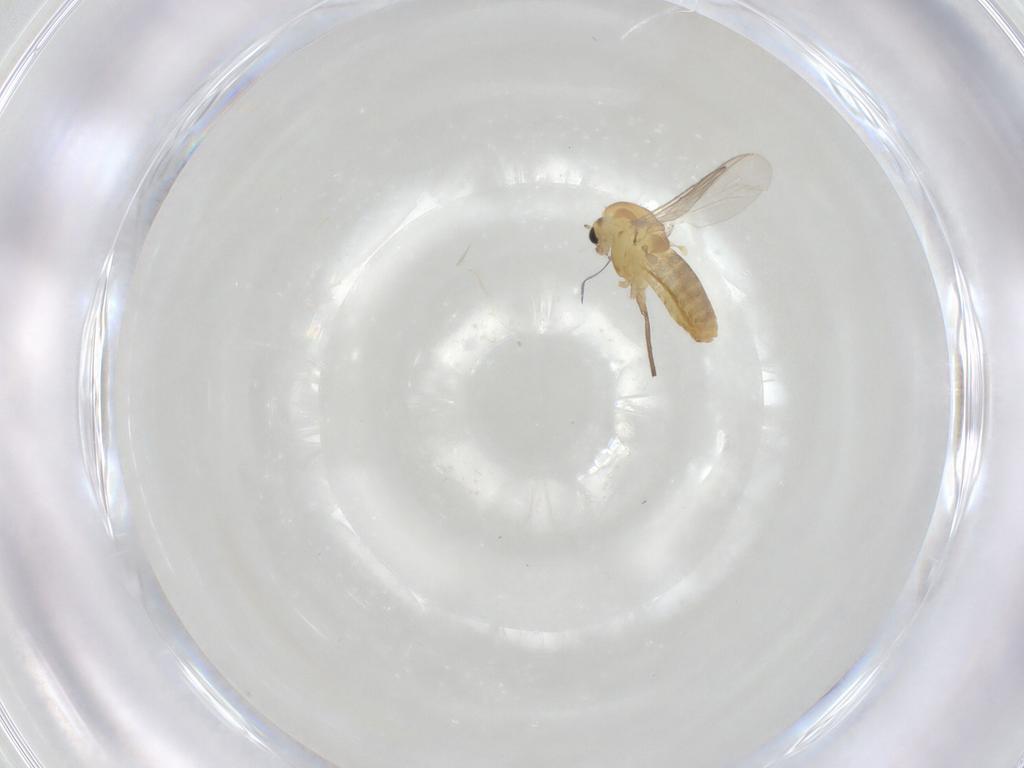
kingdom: Animalia
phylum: Arthropoda
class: Insecta
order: Diptera
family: Chironomidae
